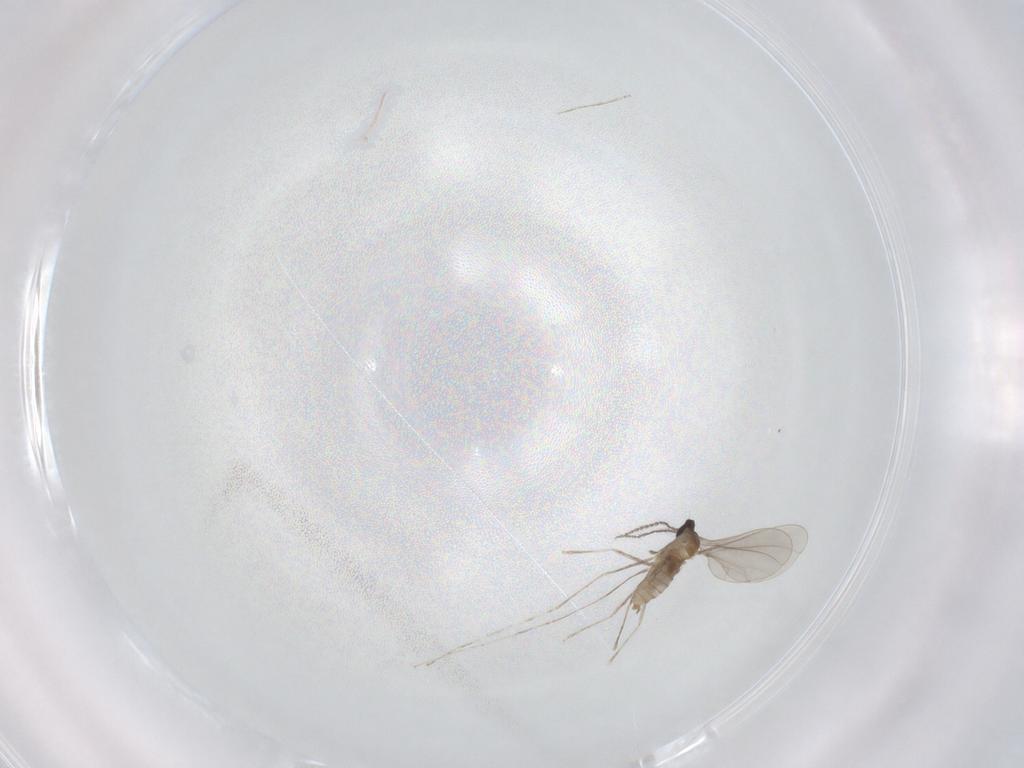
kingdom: Animalia
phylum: Arthropoda
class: Insecta
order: Diptera
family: Cecidomyiidae
